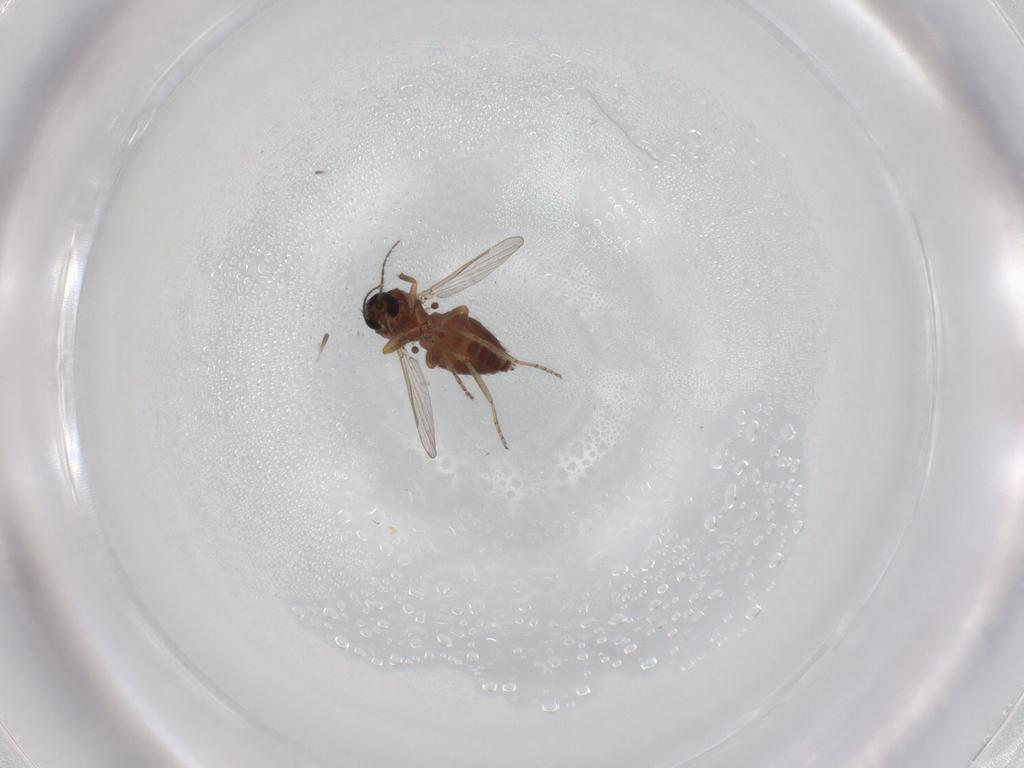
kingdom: Animalia
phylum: Arthropoda
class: Insecta
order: Diptera
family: Ceratopogonidae
